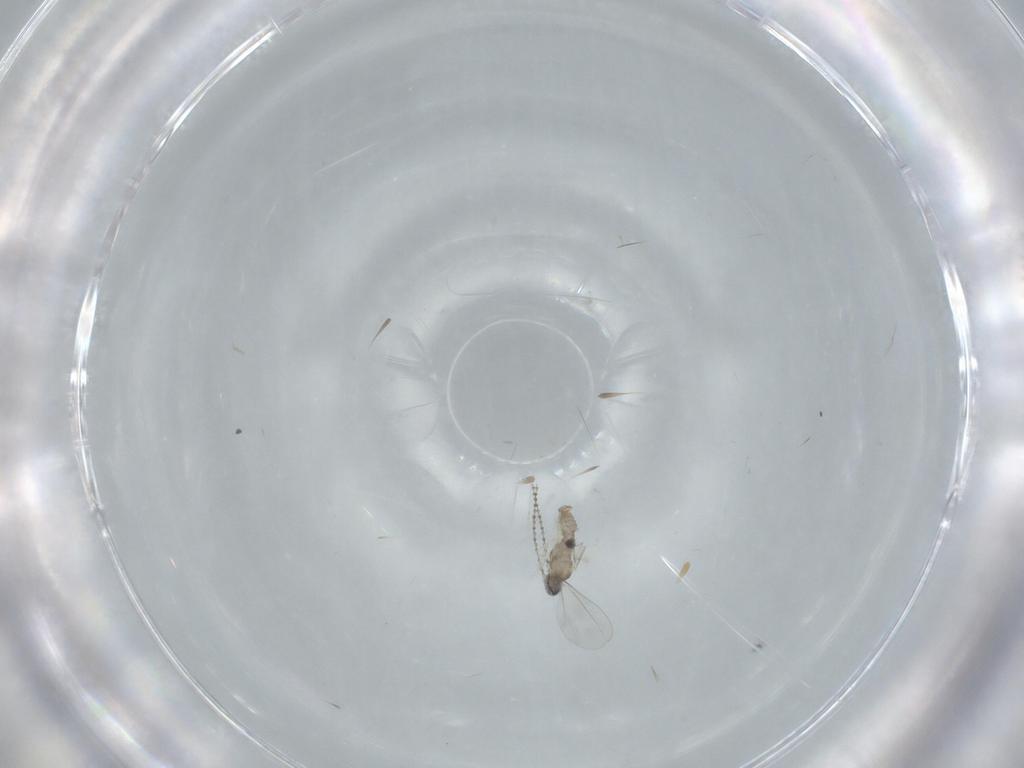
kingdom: Animalia
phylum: Arthropoda
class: Insecta
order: Diptera
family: Cecidomyiidae
